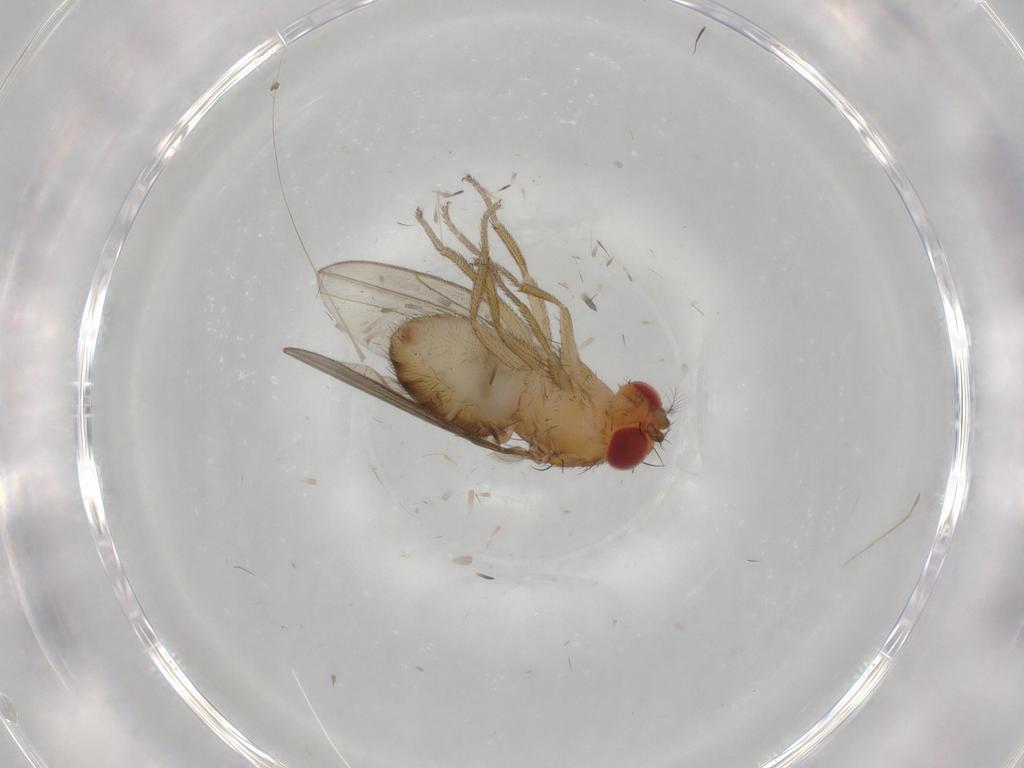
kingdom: Animalia
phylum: Arthropoda
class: Insecta
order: Diptera
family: Drosophilidae
